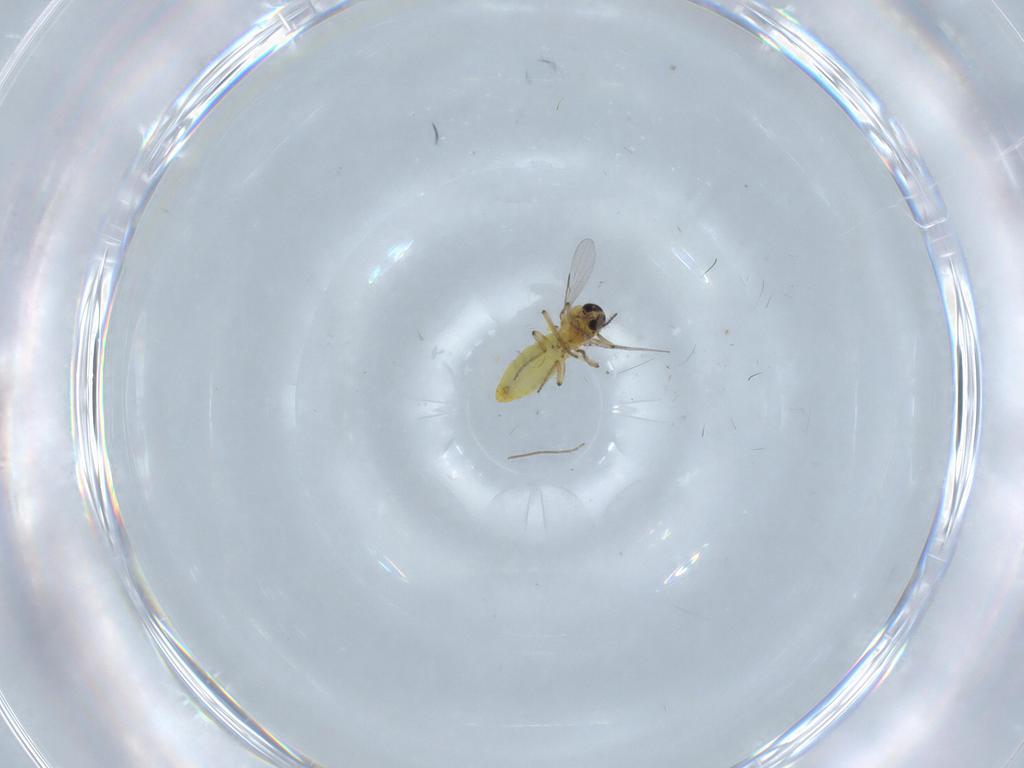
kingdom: Animalia
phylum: Arthropoda
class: Insecta
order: Diptera
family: Ceratopogonidae
